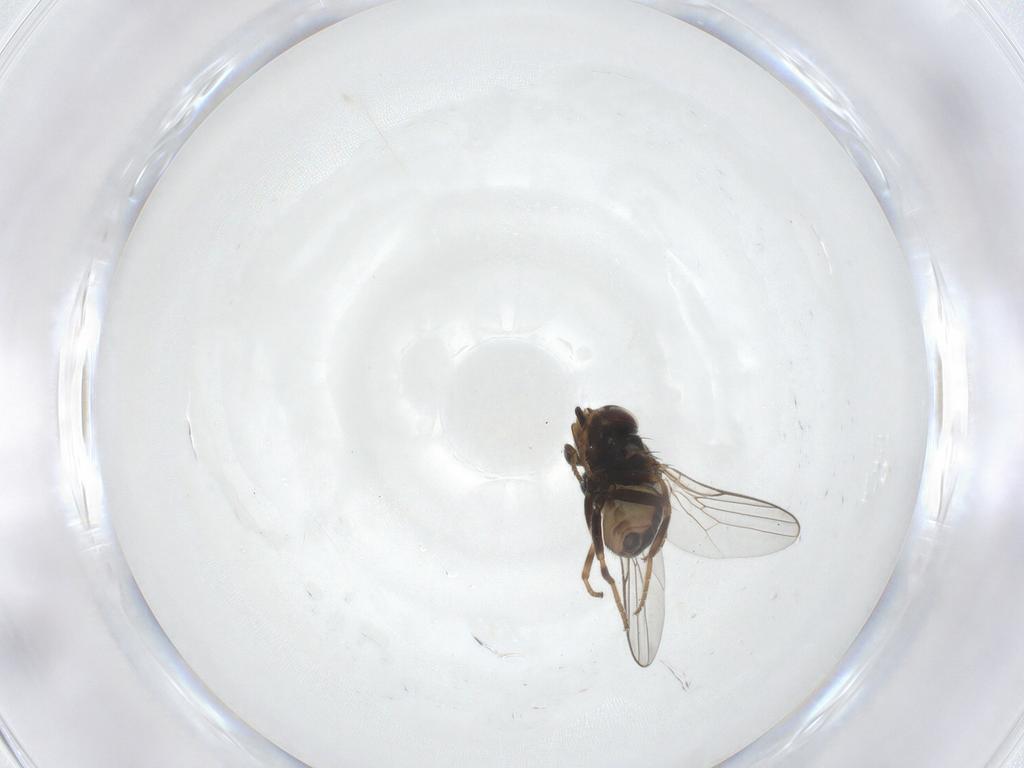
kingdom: Animalia
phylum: Arthropoda
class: Insecta
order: Diptera
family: Chloropidae
